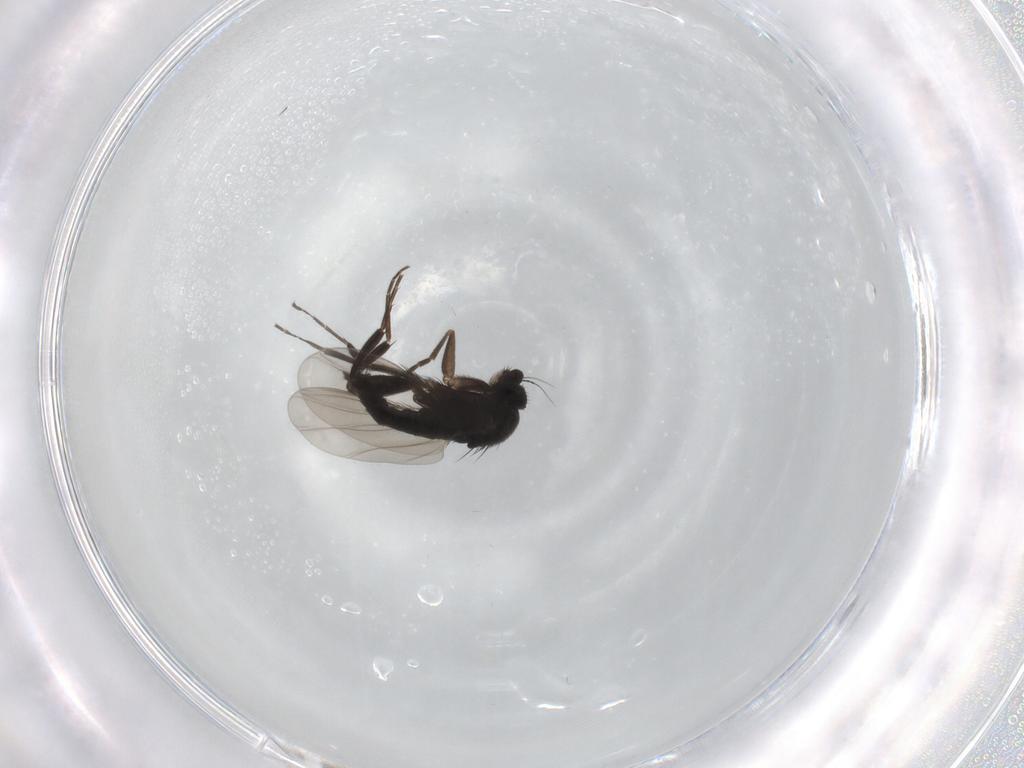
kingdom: Animalia
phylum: Arthropoda
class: Insecta
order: Diptera
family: Phoridae
